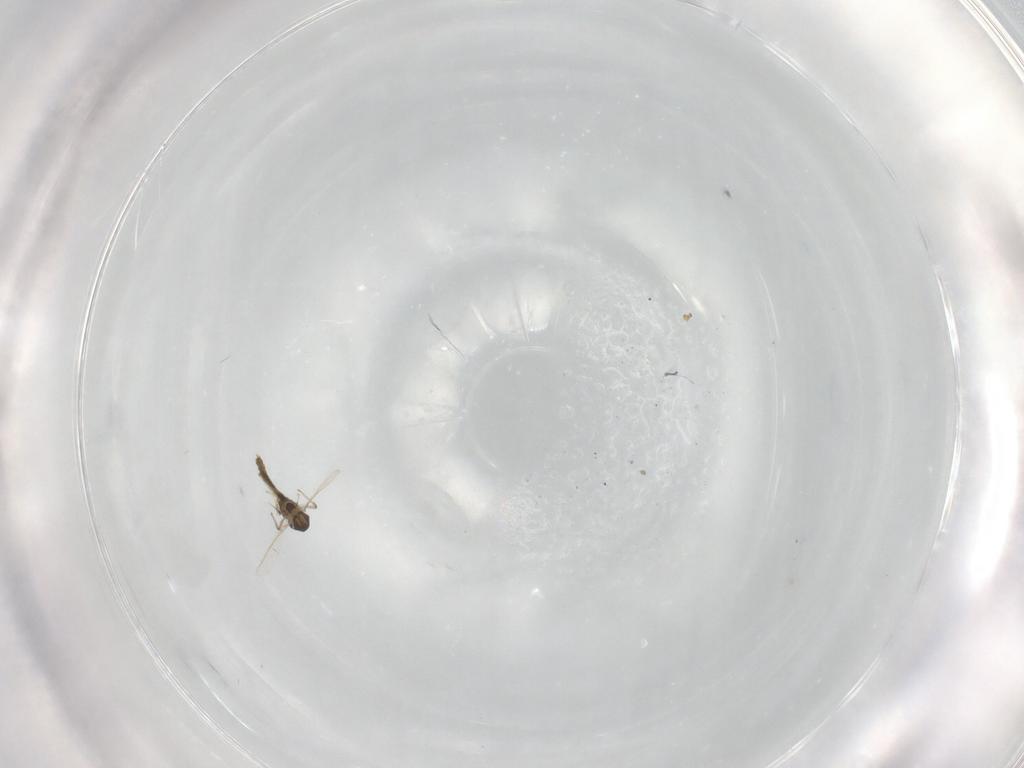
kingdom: Animalia
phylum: Arthropoda
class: Insecta
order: Diptera
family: Chironomidae
